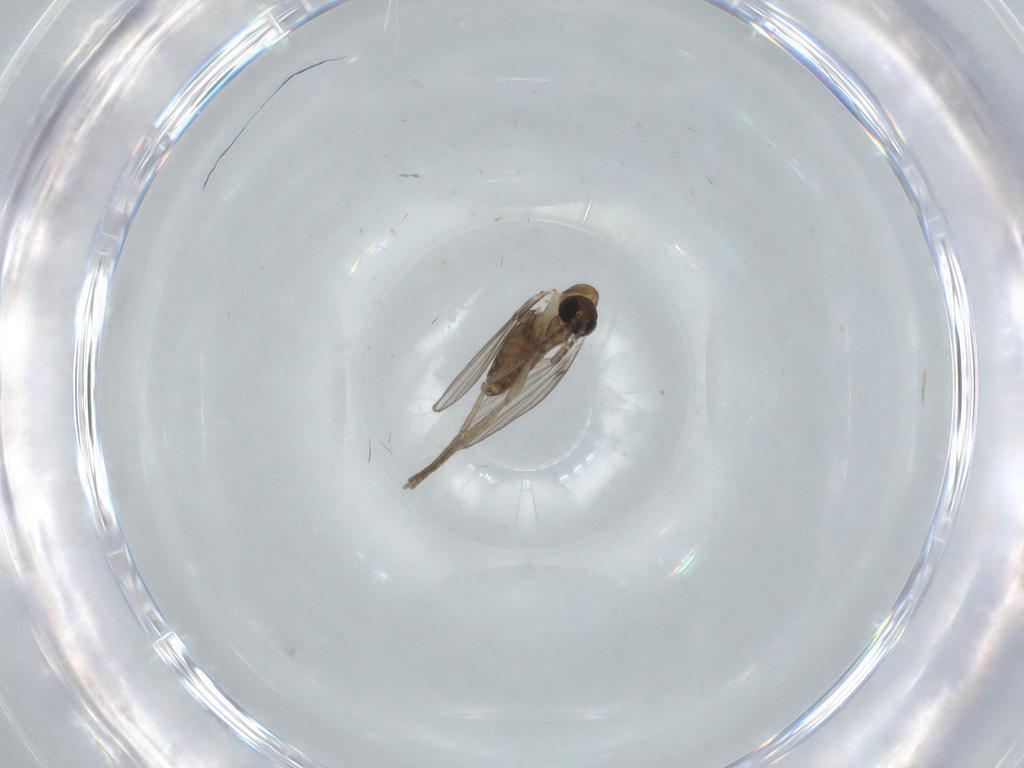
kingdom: Animalia
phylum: Arthropoda
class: Insecta
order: Diptera
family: Psychodidae
